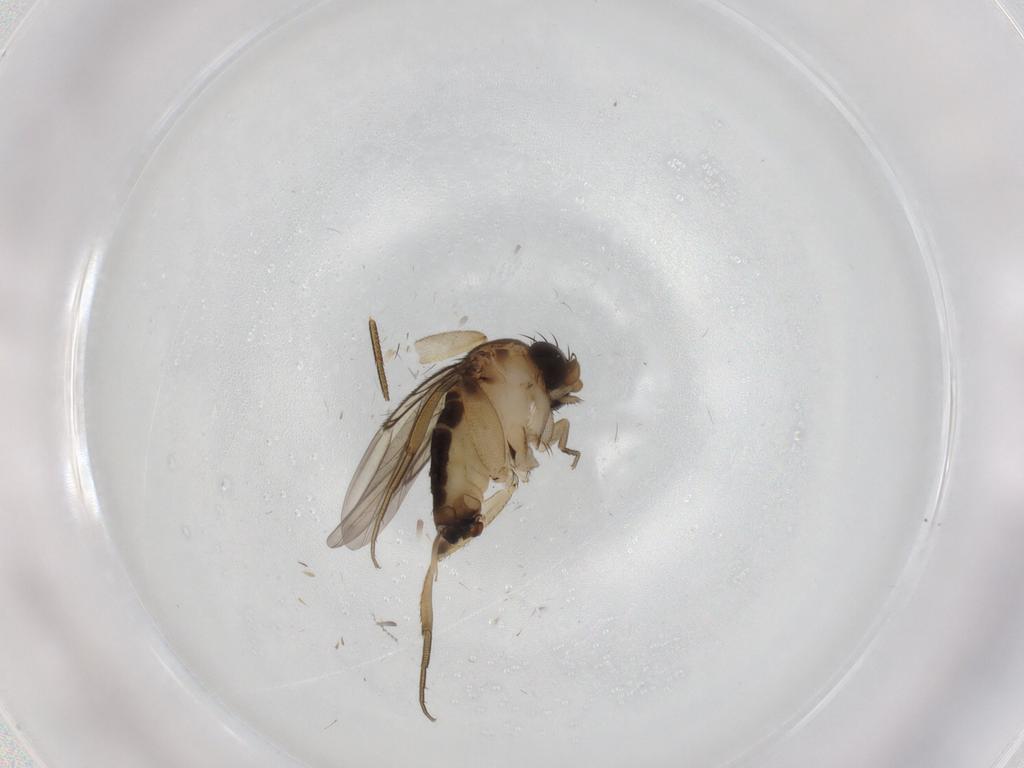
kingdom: Animalia
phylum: Arthropoda
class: Insecta
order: Diptera
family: Phoridae
